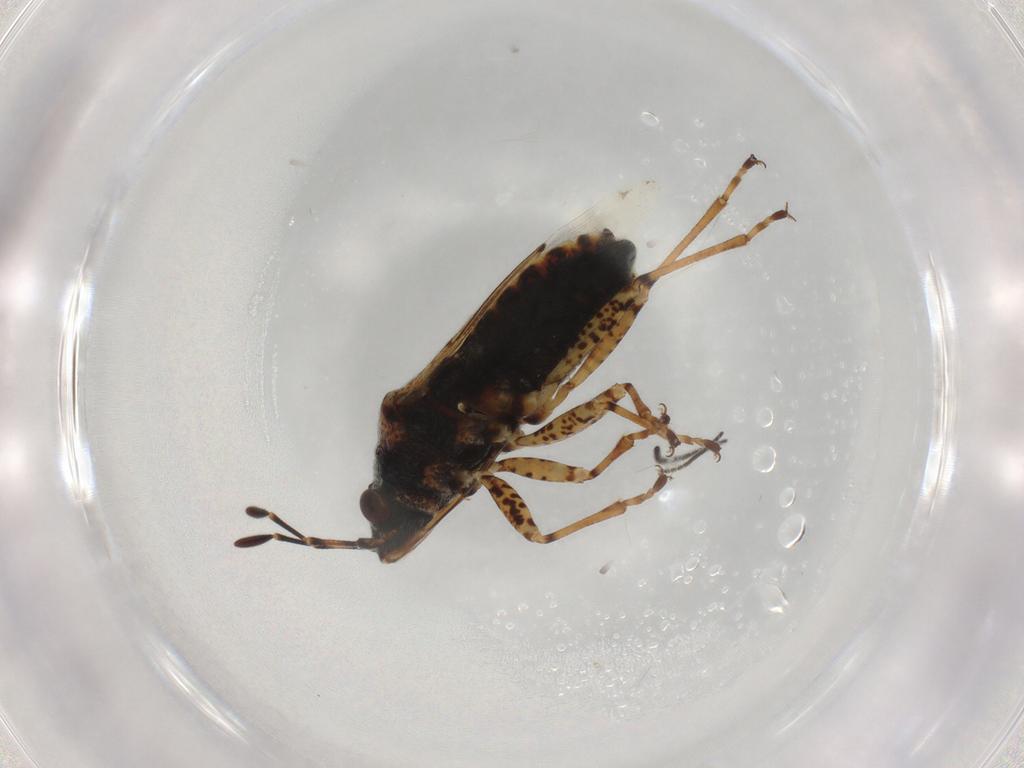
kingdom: Animalia
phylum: Arthropoda
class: Insecta
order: Hemiptera
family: Lygaeidae
